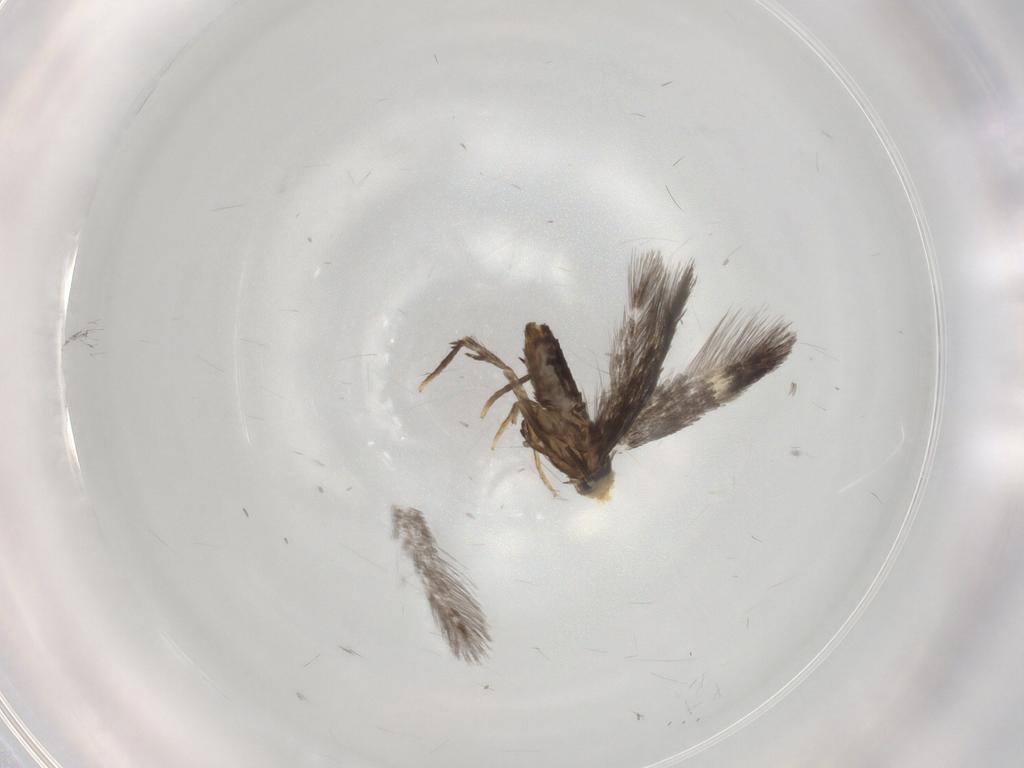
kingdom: Animalia
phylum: Arthropoda
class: Insecta
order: Lepidoptera
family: Nepticulidae
